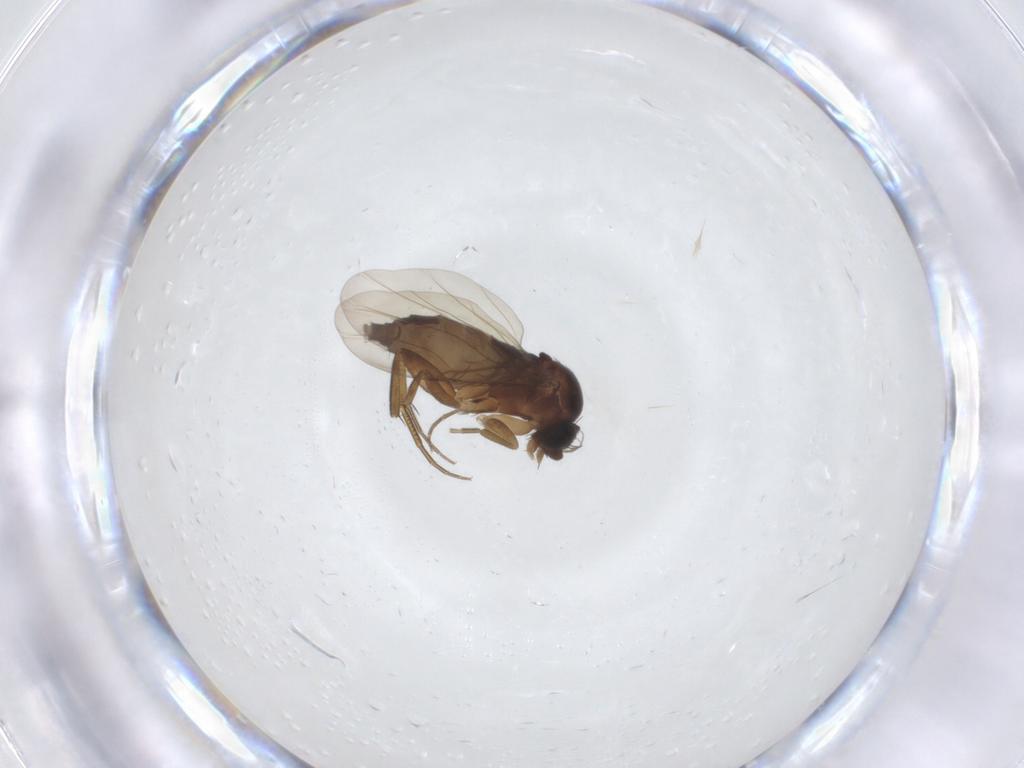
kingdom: Animalia
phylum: Arthropoda
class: Insecta
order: Diptera
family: Phoridae
